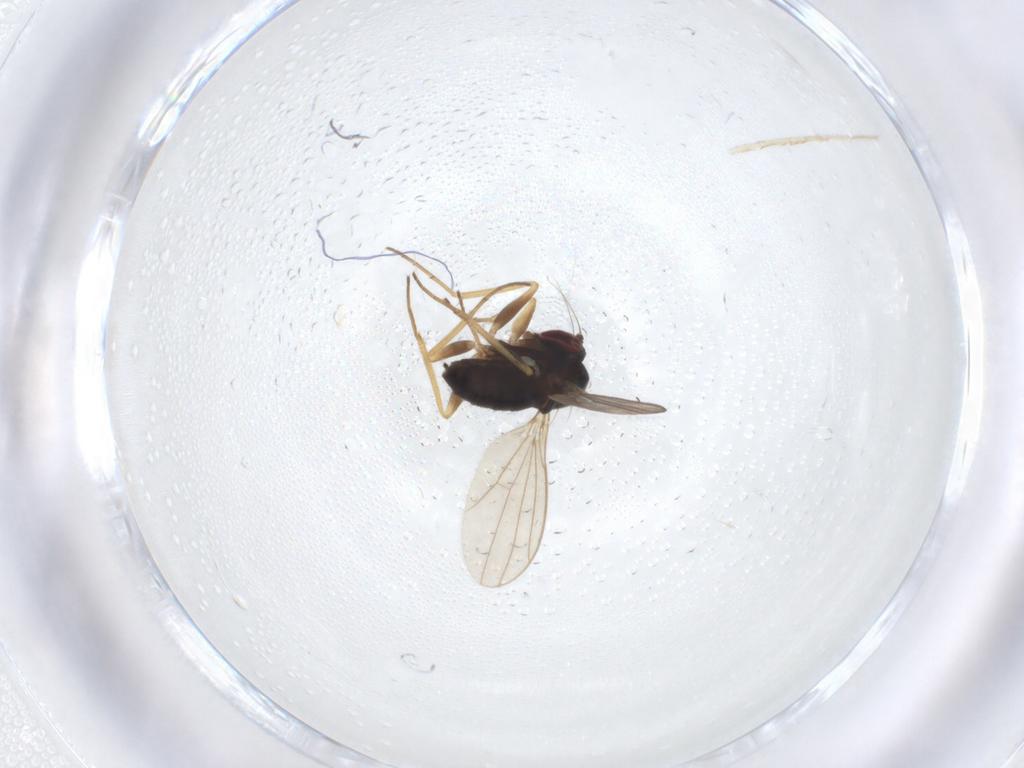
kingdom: Animalia
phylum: Arthropoda
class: Insecta
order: Diptera
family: Dolichopodidae
